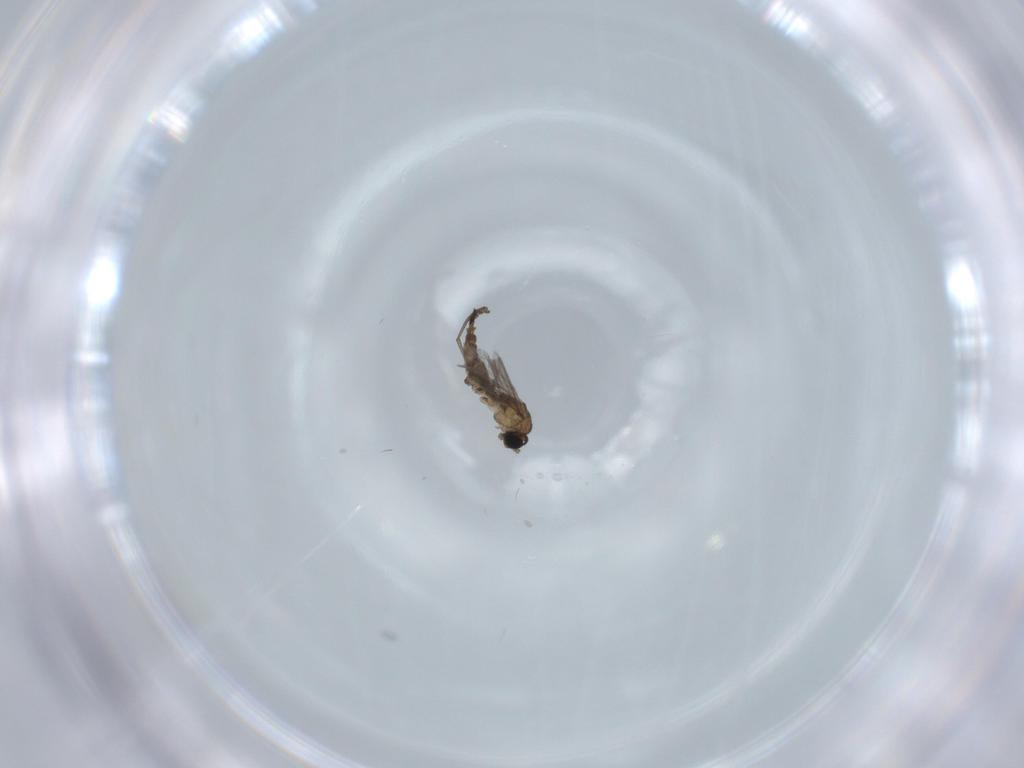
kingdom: Animalia
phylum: Arthropoda
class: Insecta
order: Diptera
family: Sciaridae
